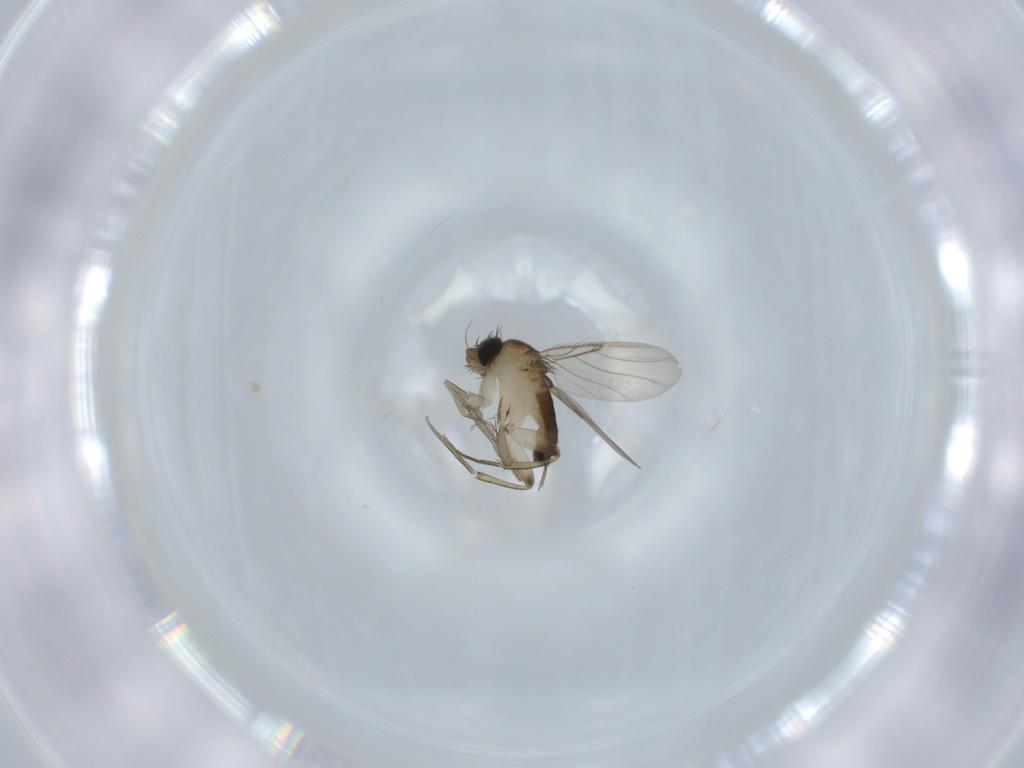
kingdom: Animalia
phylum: Arthropoda
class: Insecta
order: Diptera
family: Phoridae
